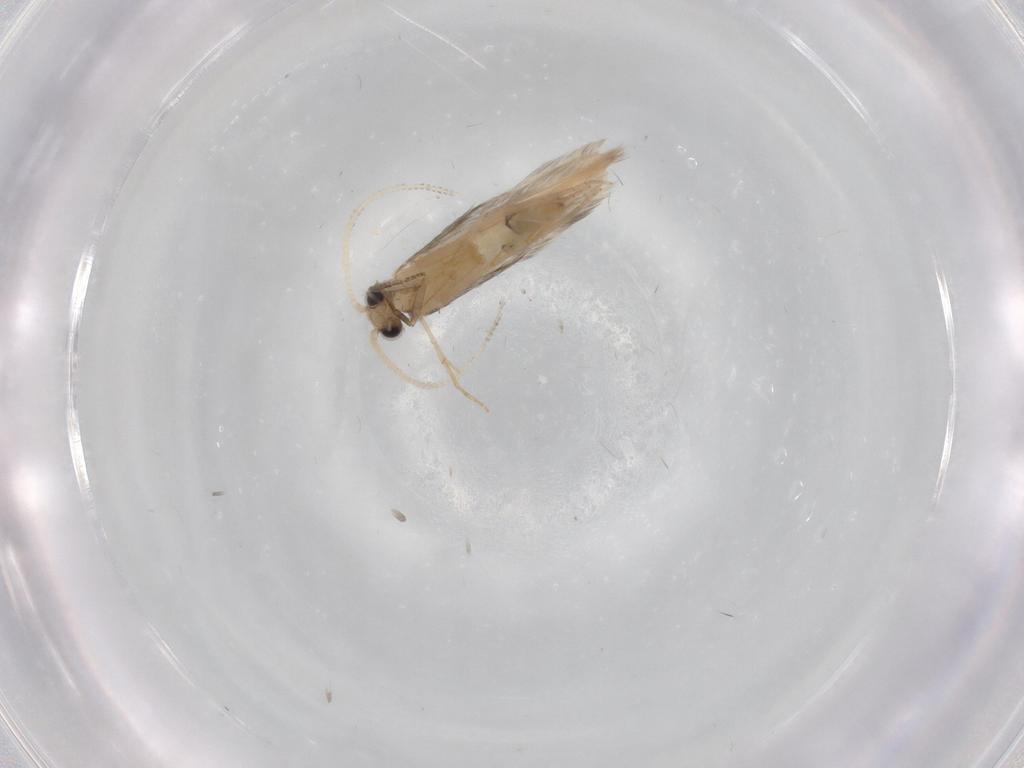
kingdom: Animalia
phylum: Arthropoda
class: Insecta
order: Trichoptera
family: Hydroptilidae
